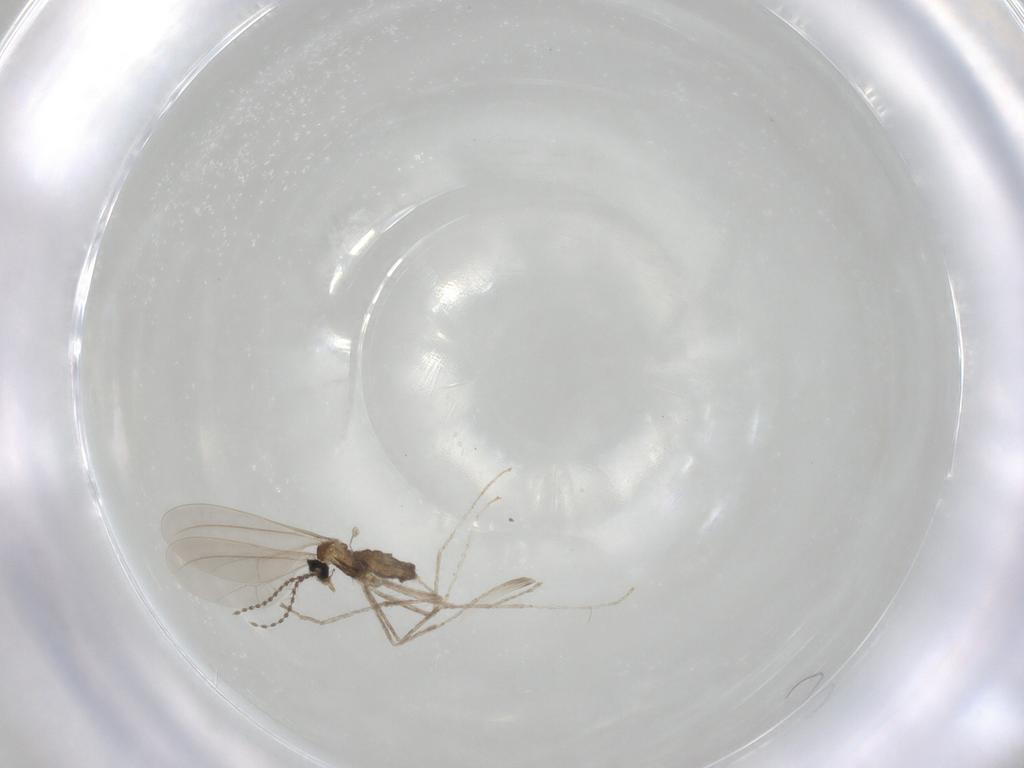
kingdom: Animalia
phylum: Arthropoda
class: Insecta
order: Diptera
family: Cecidomyiidae
